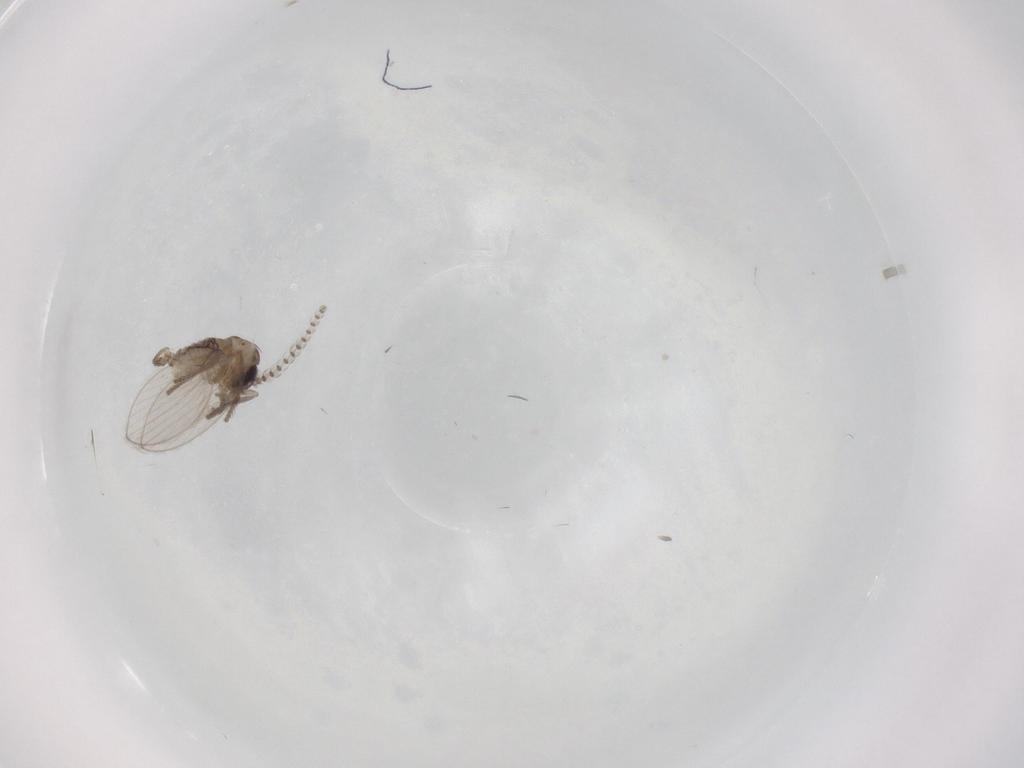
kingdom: Animalia
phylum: Arthropoda
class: Insecta
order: Diptera
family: Psychodidae
